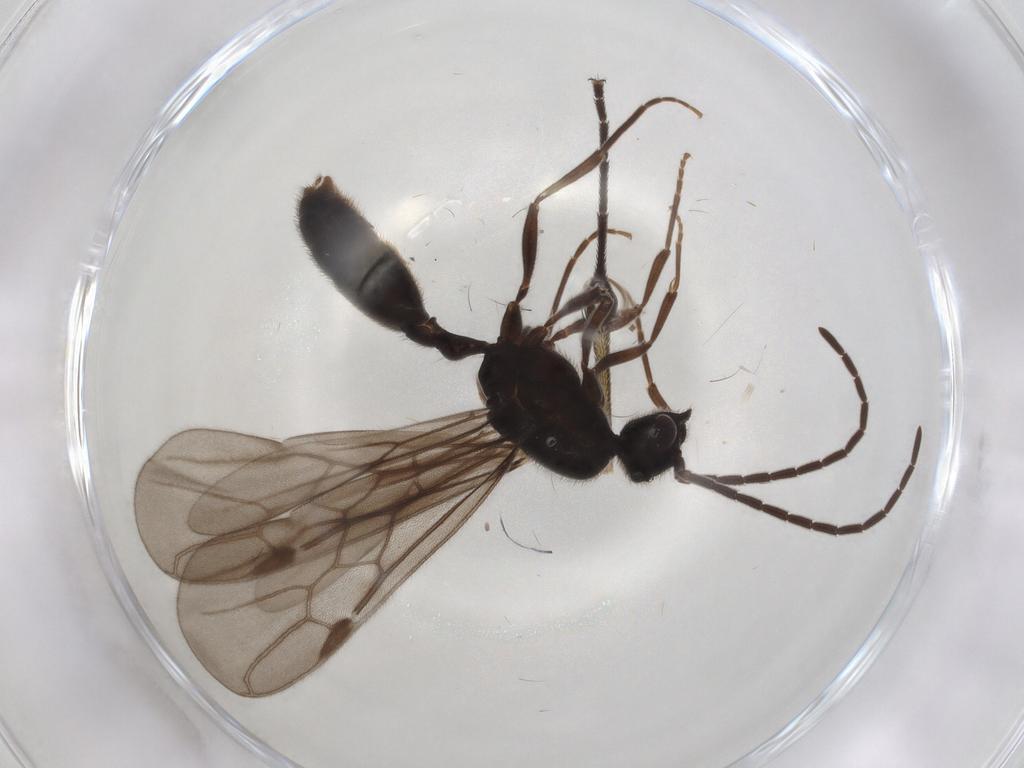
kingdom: Animalia
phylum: Arthropoda
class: Insecta
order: Hymenoptera
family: Formicidae
